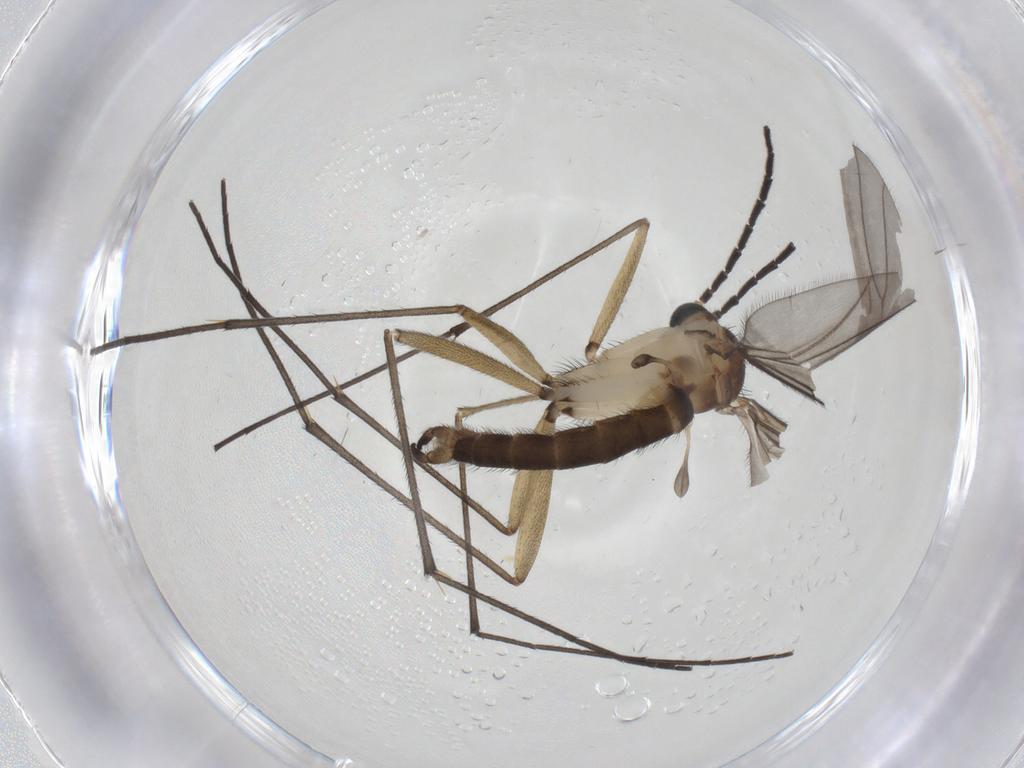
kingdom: Animalia
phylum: Arthropoda
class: Insecta
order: Diptera
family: Sciaridae
